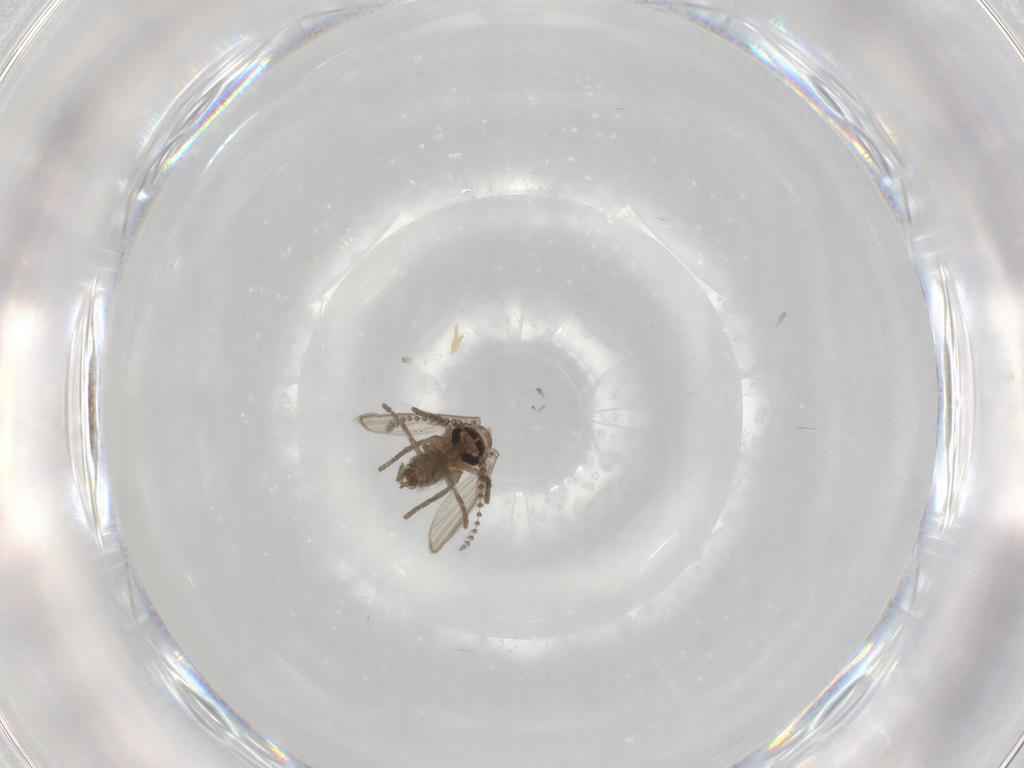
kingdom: Animalia
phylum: Arthropoda
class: Insecta
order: Diptera
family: Psychodidae
